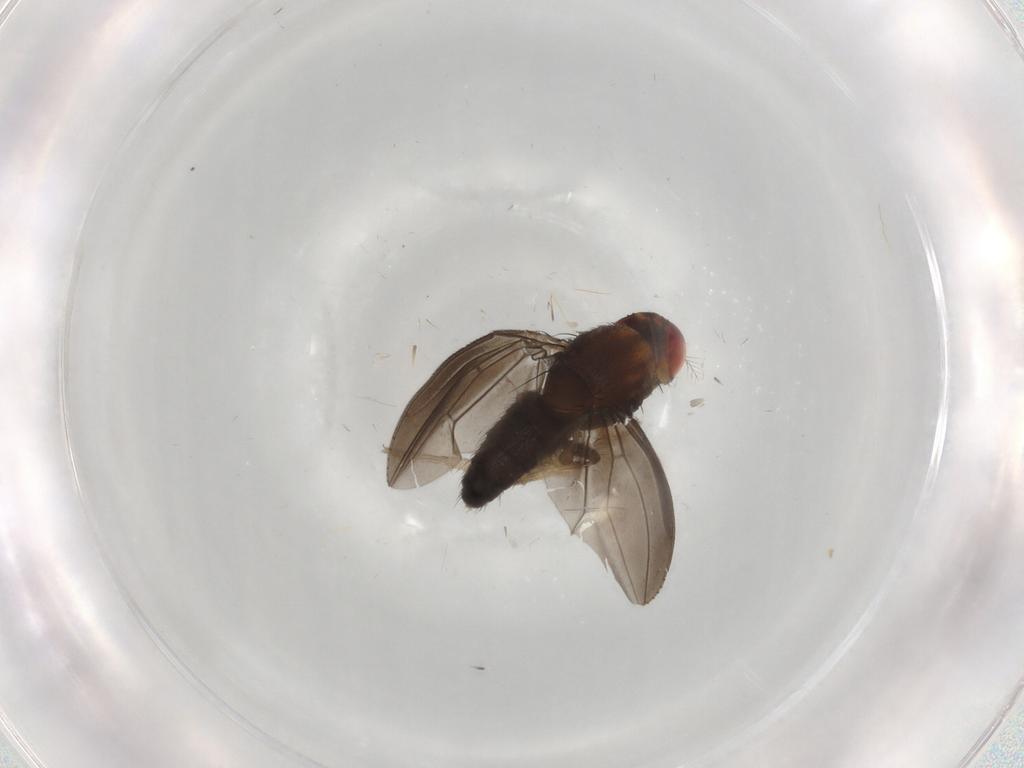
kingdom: Animalia
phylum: Arthropoda
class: Insecta
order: Diptera
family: Drosophilidae
